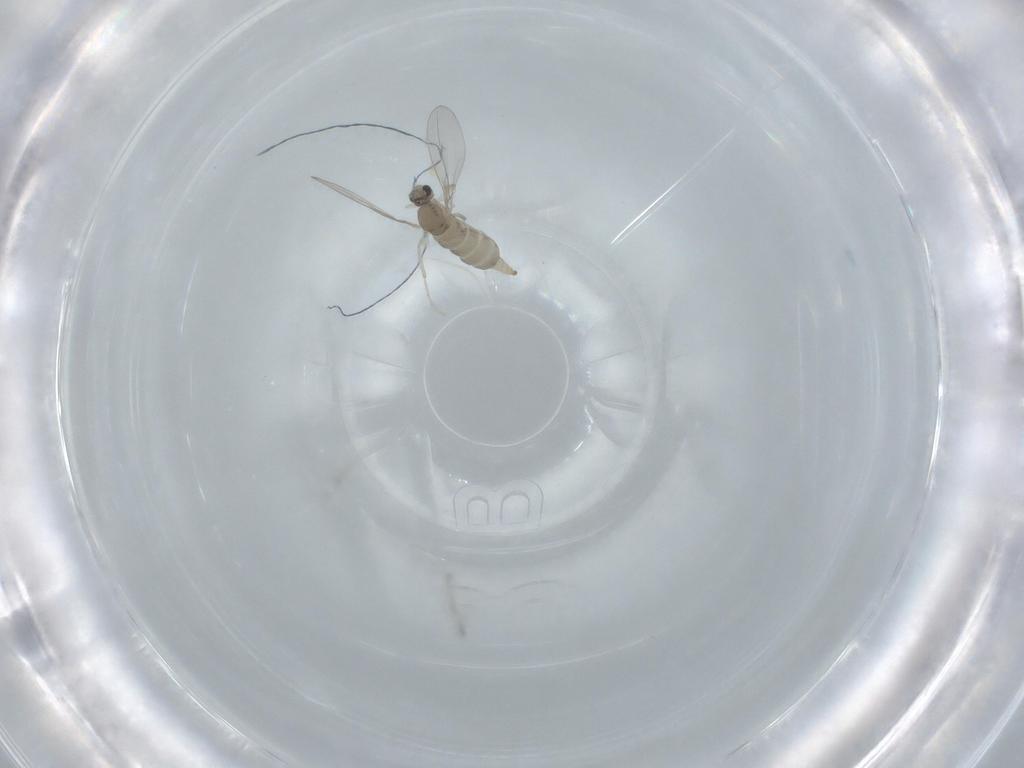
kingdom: Animalia
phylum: Arthropoda
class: Insecta
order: Diptera
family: Cecidomyiidae
